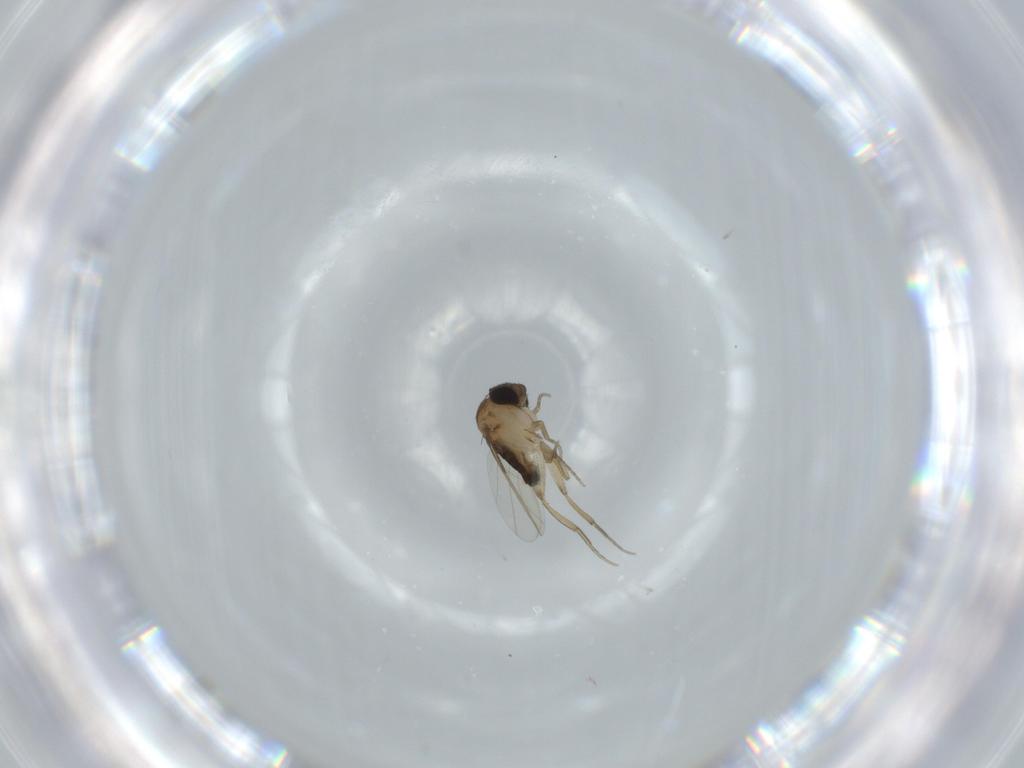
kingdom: Animalia
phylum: Arthropoda
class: Insecta
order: Diptera
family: Phoridae
